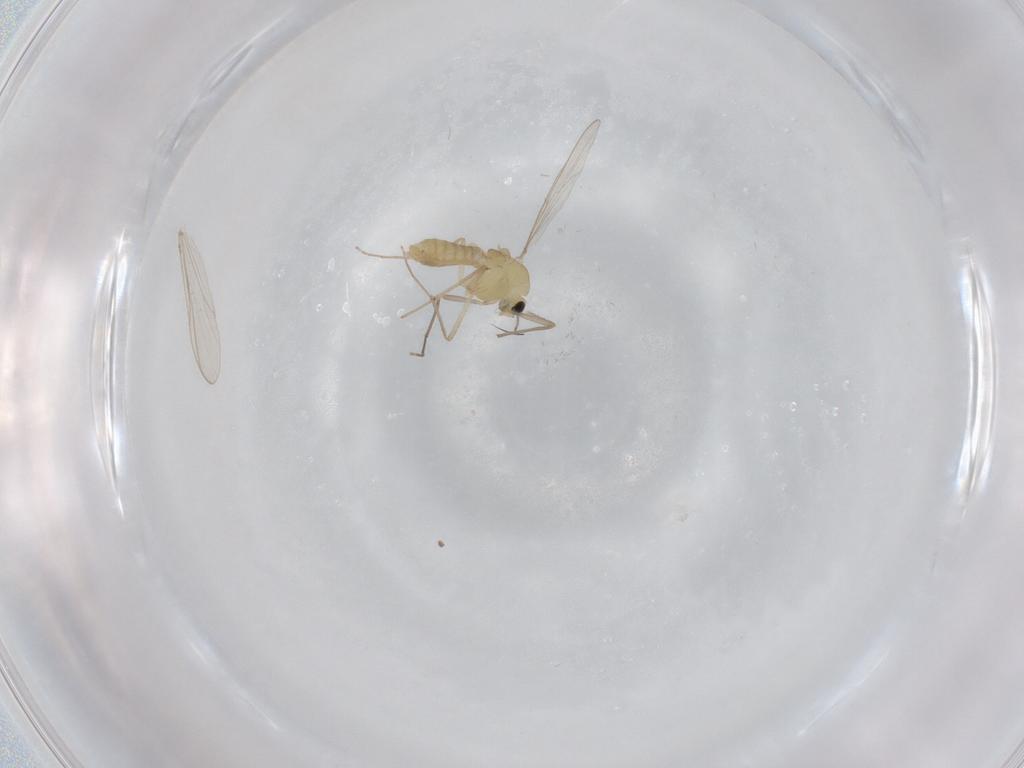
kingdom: Animalia
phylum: Arthropoda
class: Insecta
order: Diptera
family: Chironomidae
